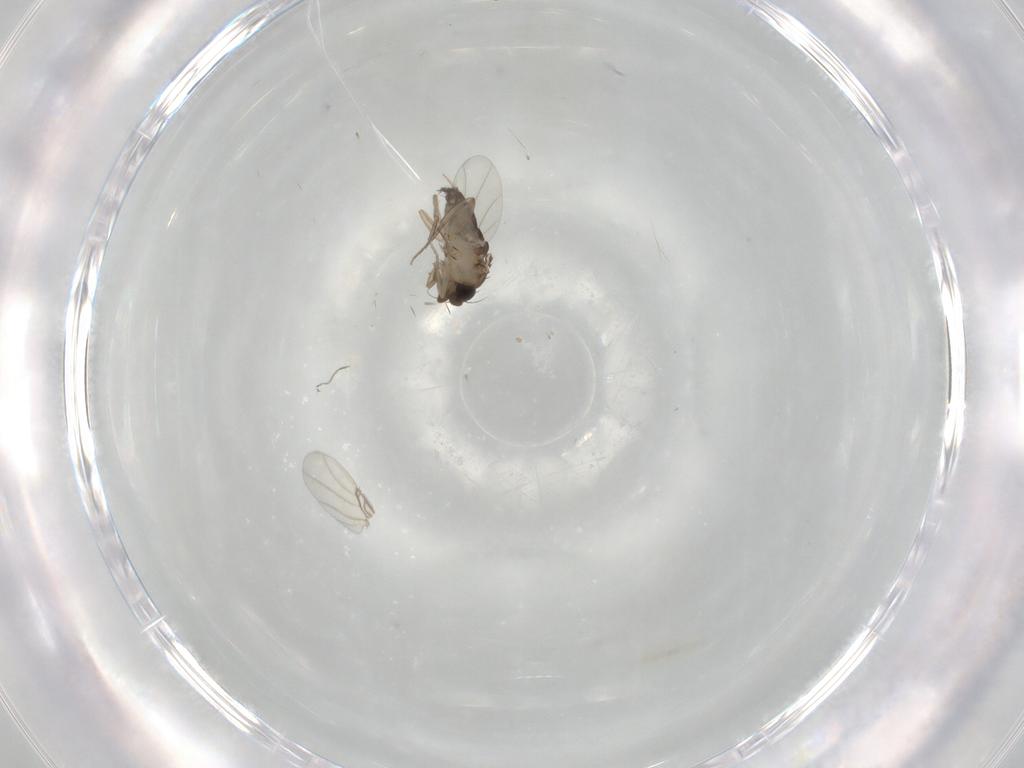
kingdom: Animalia
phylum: Arthropoda
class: Insecta
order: Diptera
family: Phoridae
